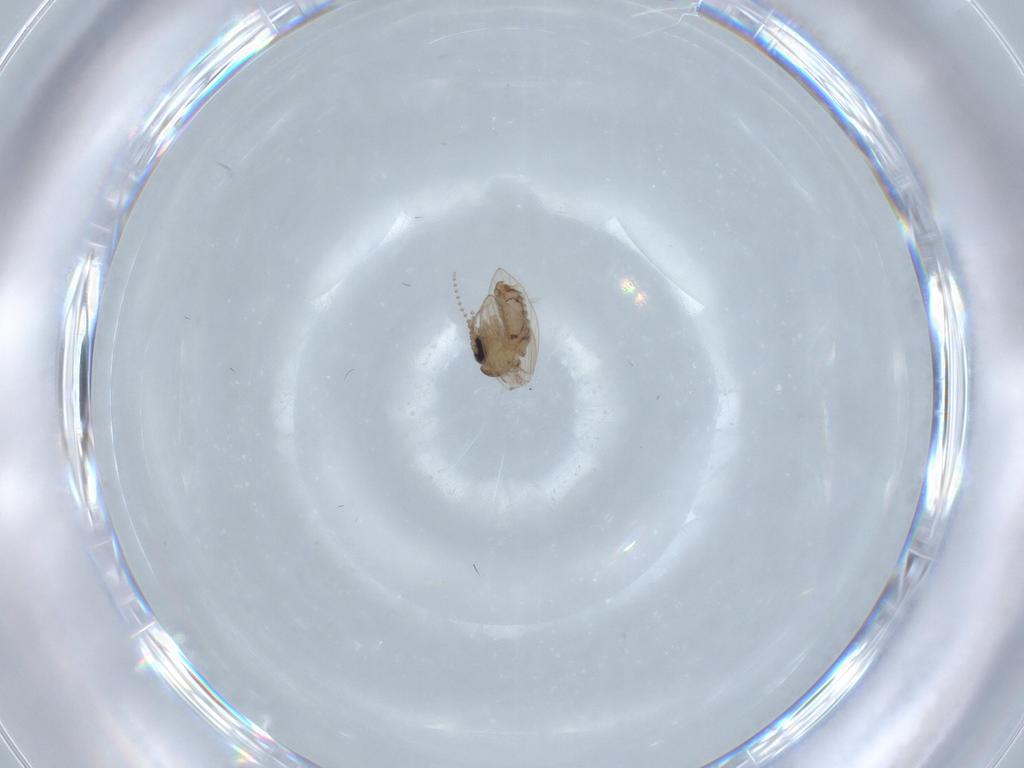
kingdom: Animalia
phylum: Arthropoda
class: Insecta
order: Diptera
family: Psychodidae
